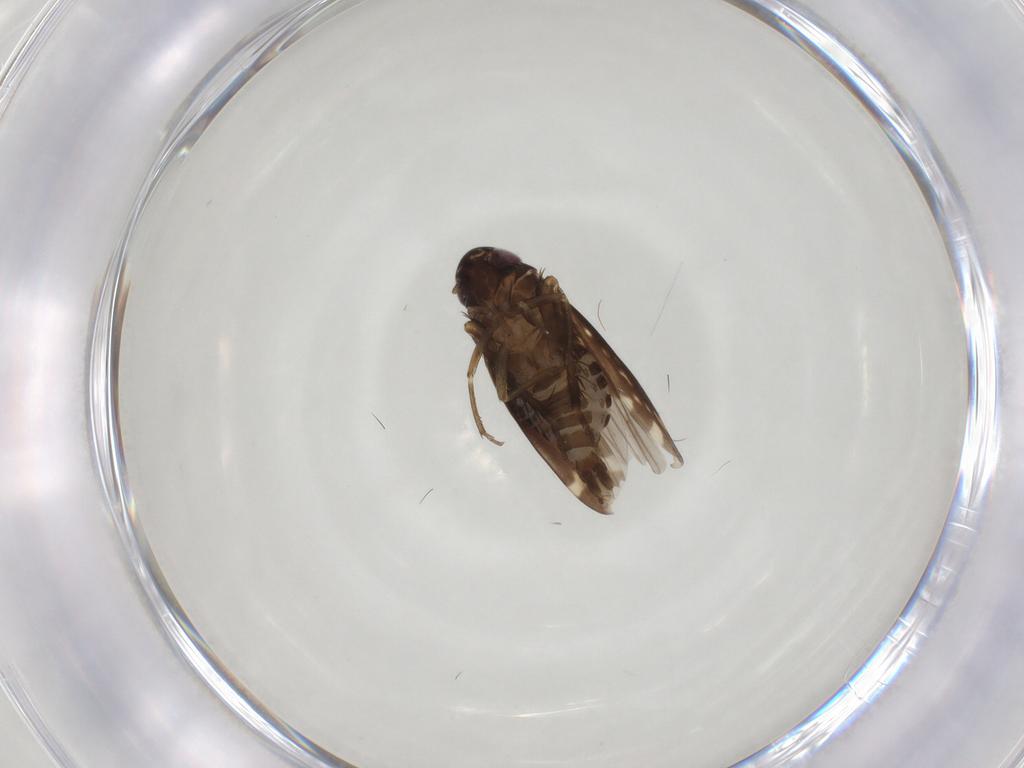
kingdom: Animalia
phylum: Arthropoda
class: Insecta
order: Hemiptera
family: Cicadellidae
